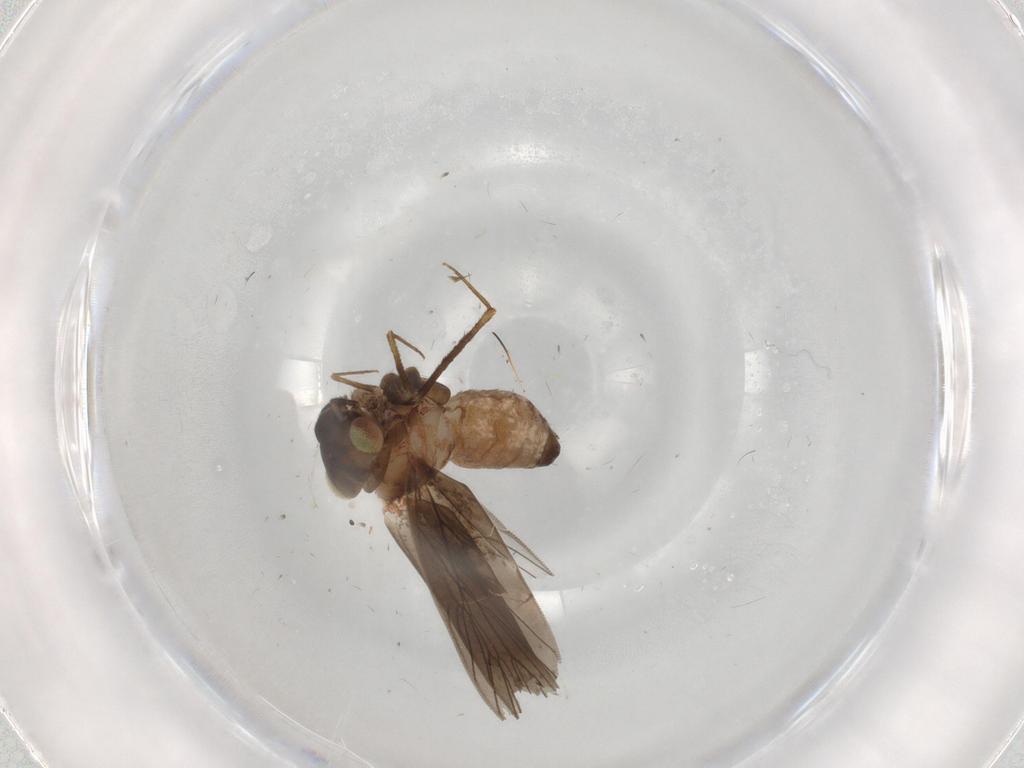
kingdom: Animalia
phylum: Arthropoda
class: Insecta
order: Psocodea
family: Lepidopsocidae
